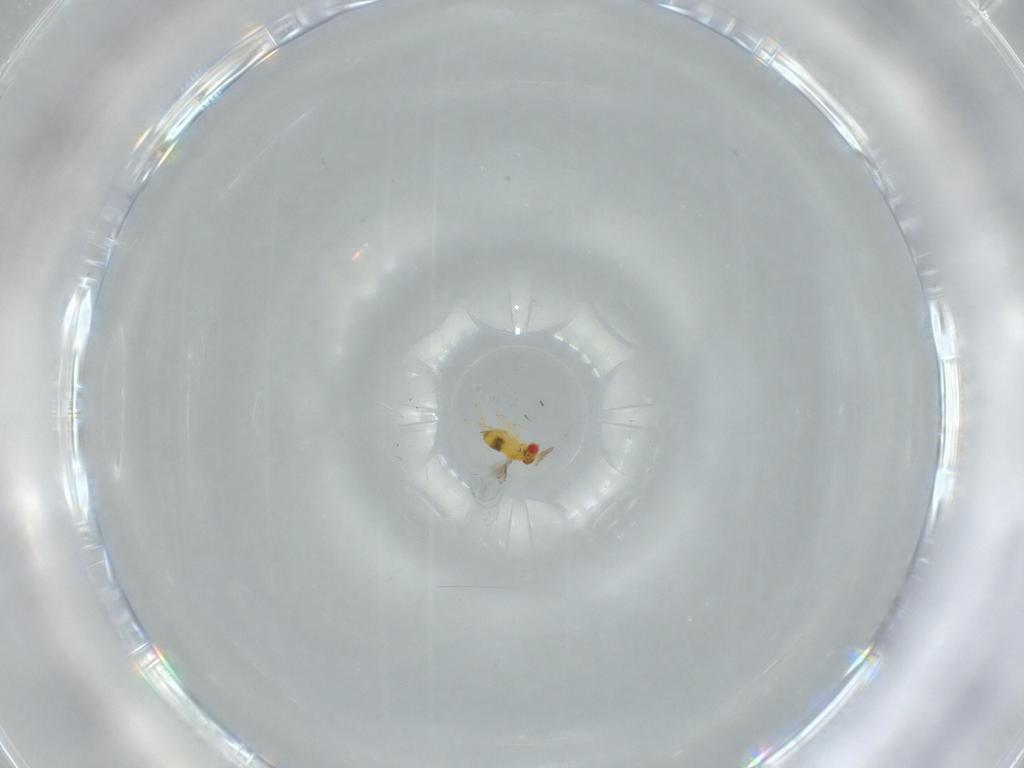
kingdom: Animalia
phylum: Arthropoda
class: Insecta
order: Hymenoptera
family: Trichogrammatidae
